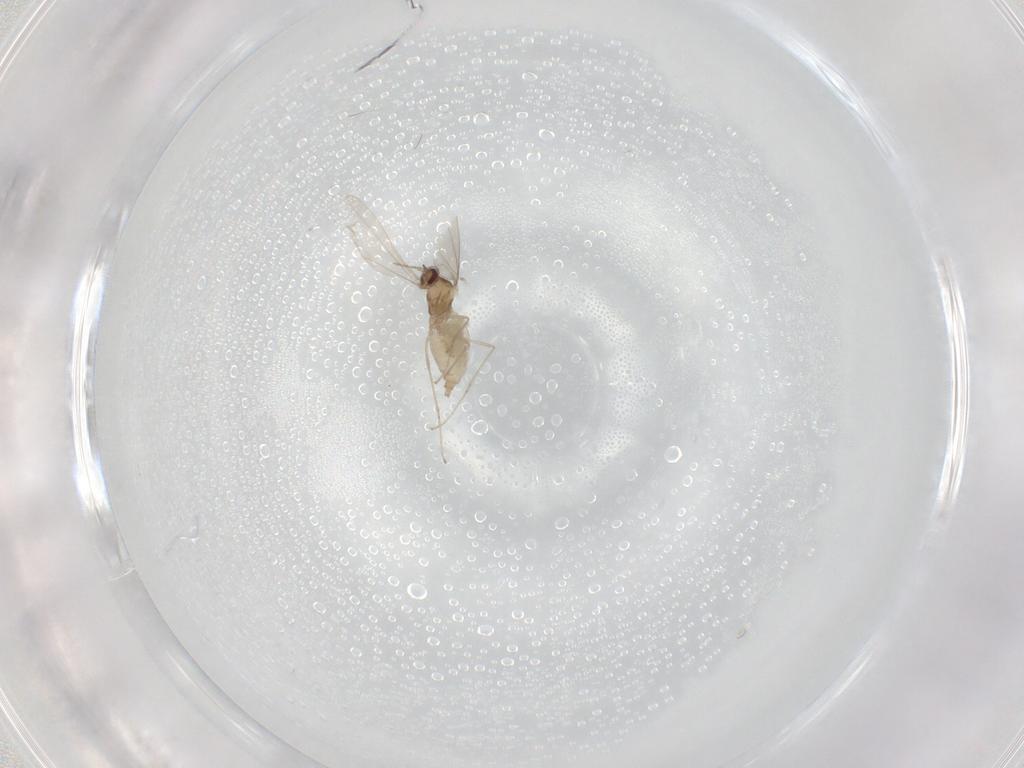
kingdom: Animalia
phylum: Arthropoda
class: Insecta
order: Diptera
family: Cecidomyiidae
